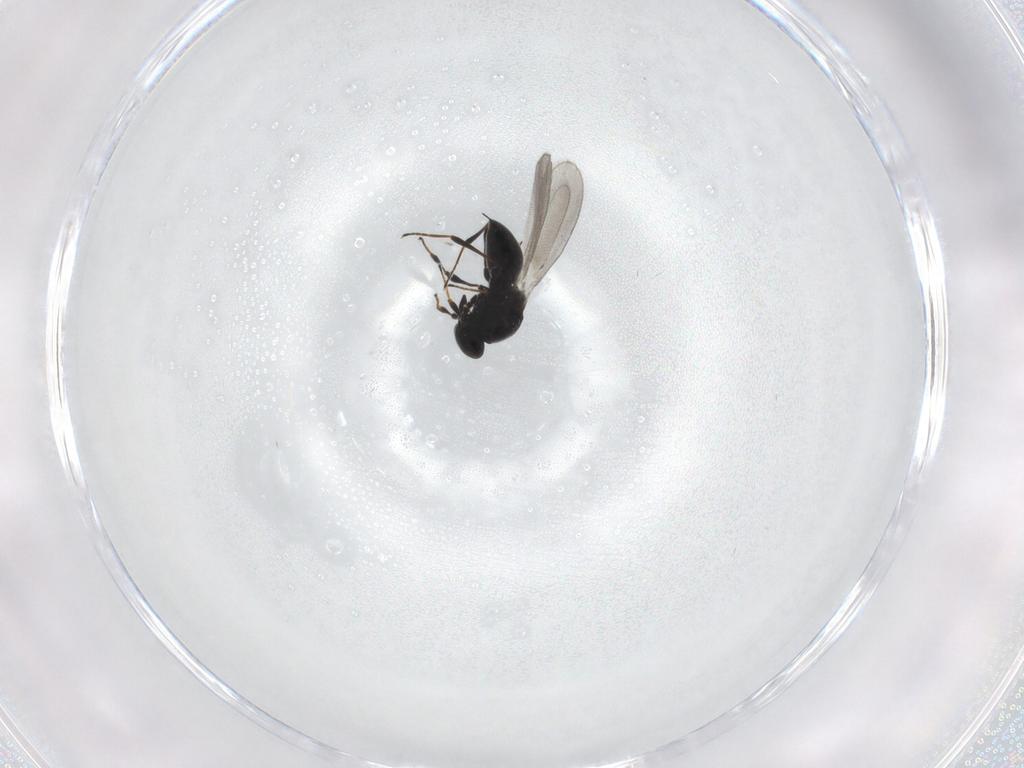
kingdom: Animalia
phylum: Arthropoda
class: Insecta
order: Hymenoptera
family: Platygastridae
